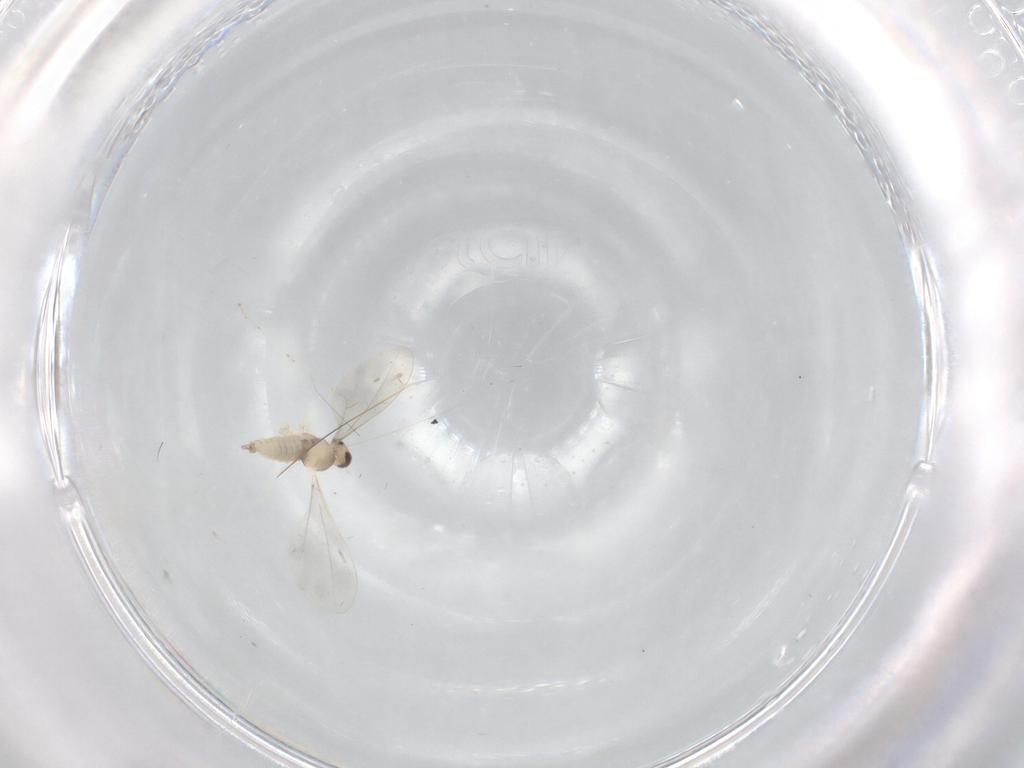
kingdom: Animalia
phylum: Arthropoda
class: Insecta
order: Diptera
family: Cecidomyiidae
